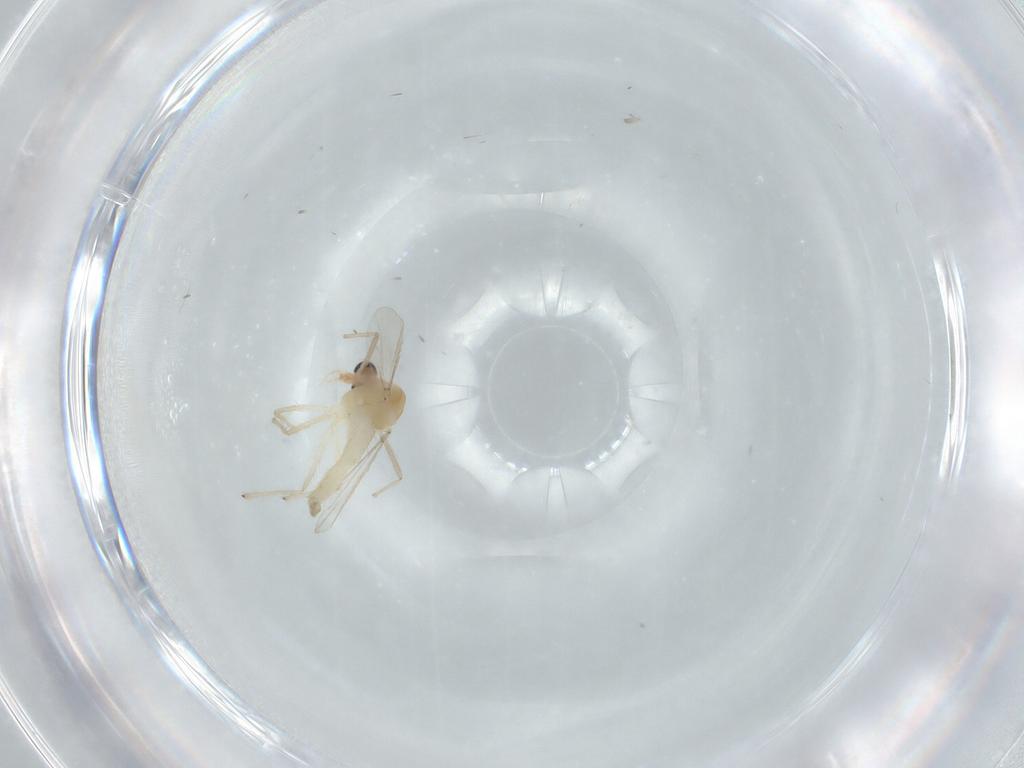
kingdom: Animalia
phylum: Arthropoda
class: Insecta
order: Diptera
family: Chironomidae
